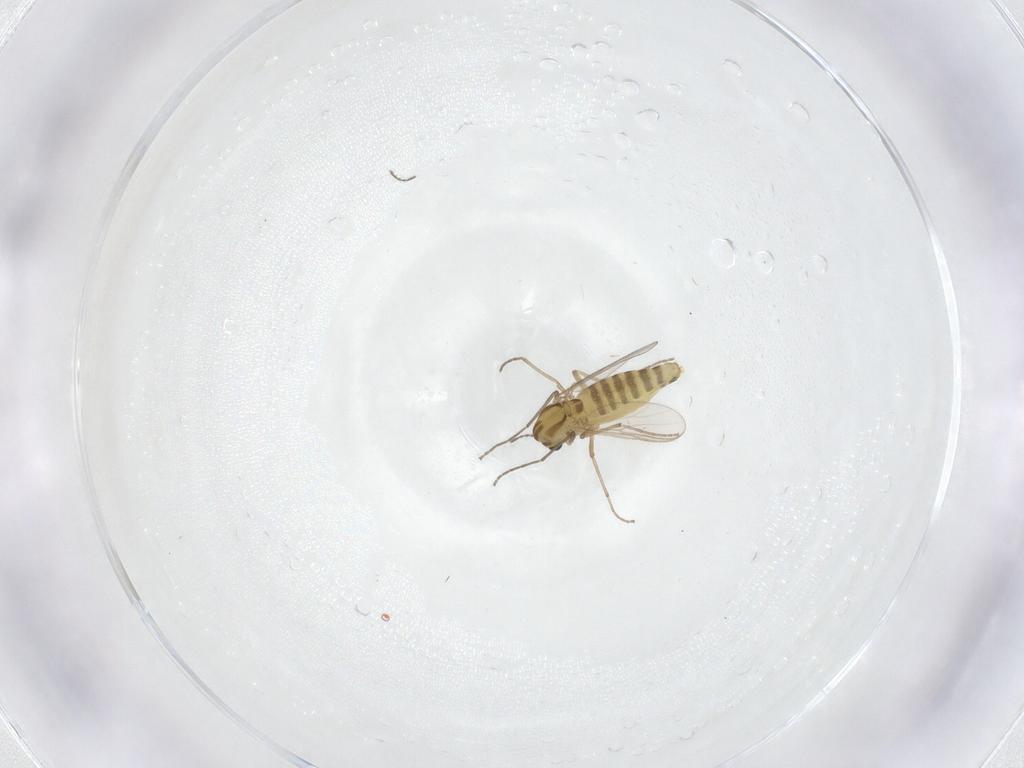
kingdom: Animalia
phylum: Arthropoda
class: Insecta
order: Diptera
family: Chironomidae
